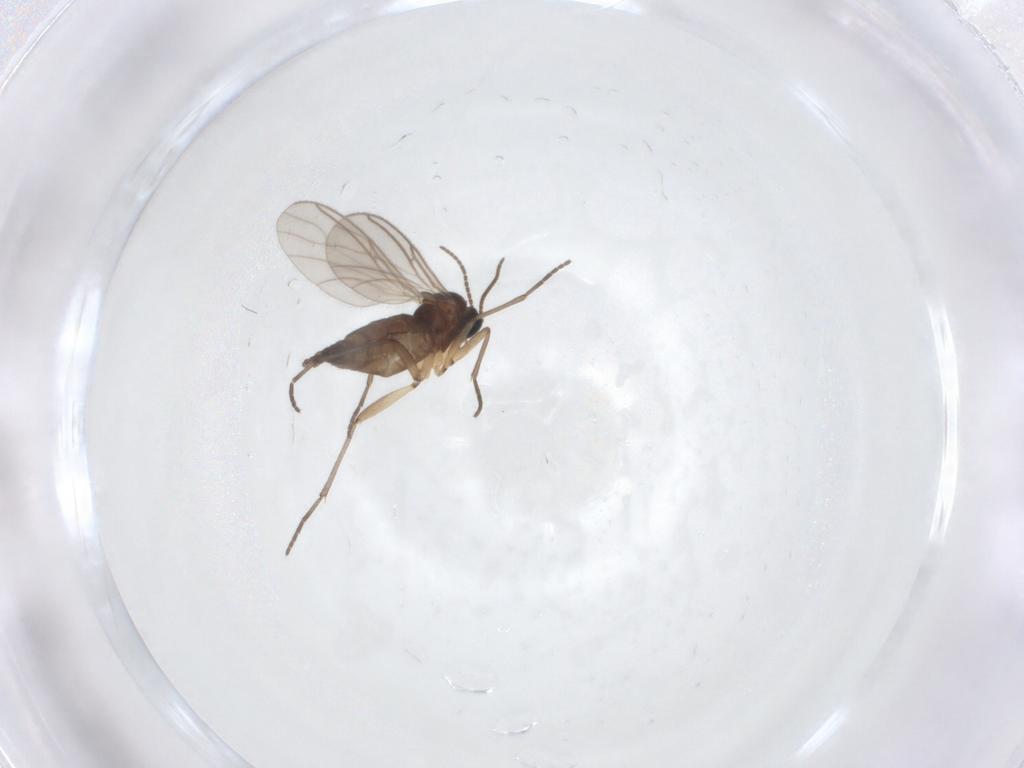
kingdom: Animalia
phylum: Arthropoda
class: Insecta
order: Diptera
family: Sciaridae
